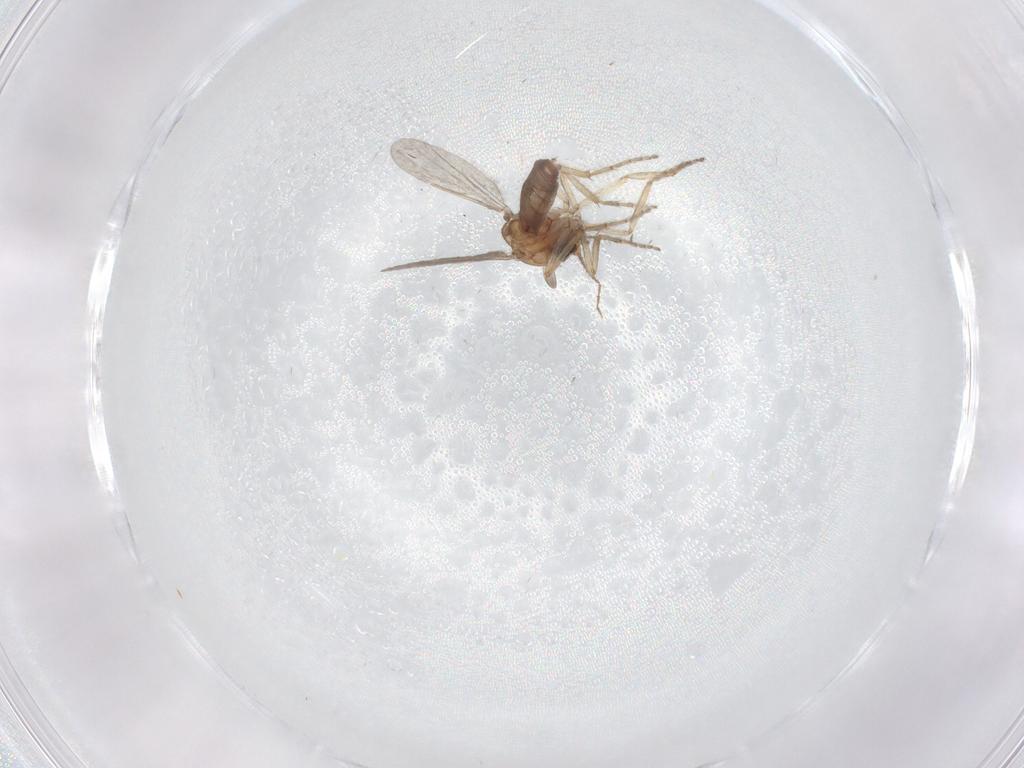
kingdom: Animalia
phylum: Arthropoda
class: Insecta
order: Diptera
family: Ceratopogonidae
